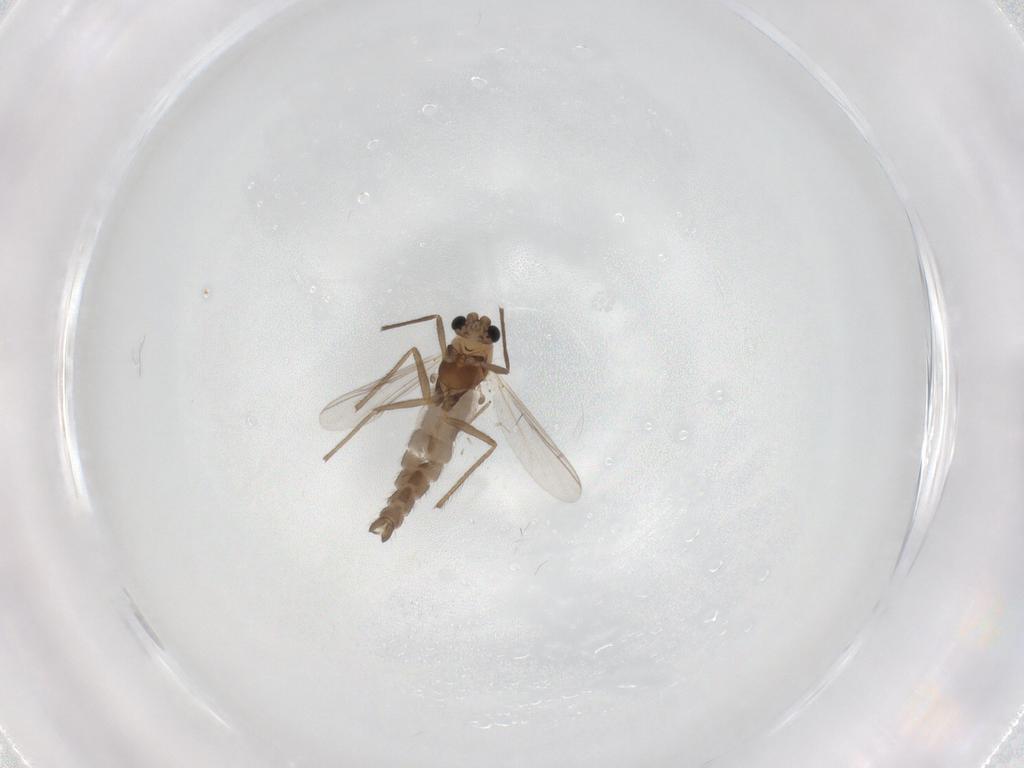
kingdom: Animalia
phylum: Arthropoda
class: Insecta
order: Diptera
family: Chironomidae
